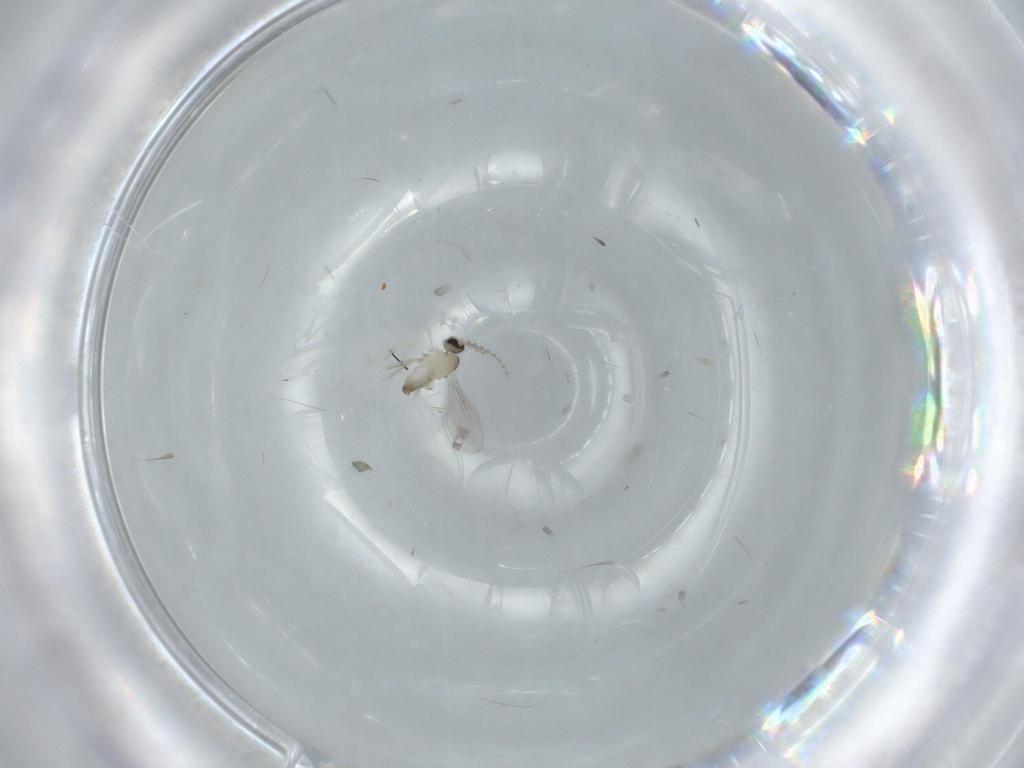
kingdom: Animalia
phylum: Arthropoda
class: Insecta
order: Diptera
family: Cecidomyiidae
